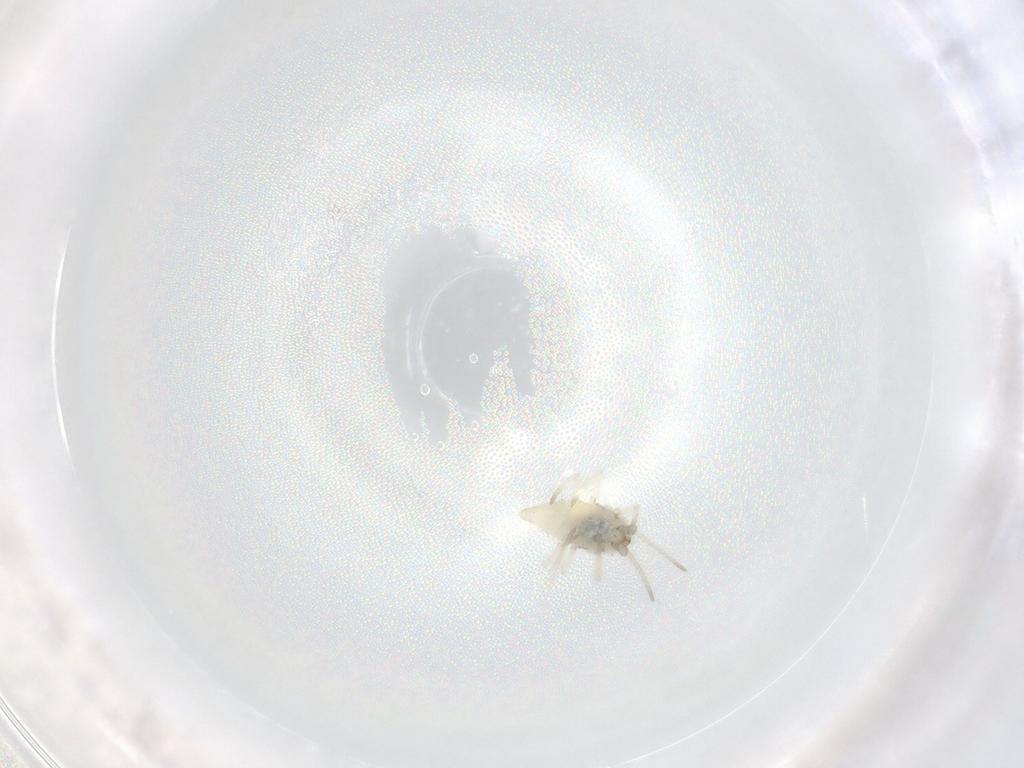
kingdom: Animalia
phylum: Arthropoda
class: Insecta
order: Neuroptera
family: Coniopterygidae
